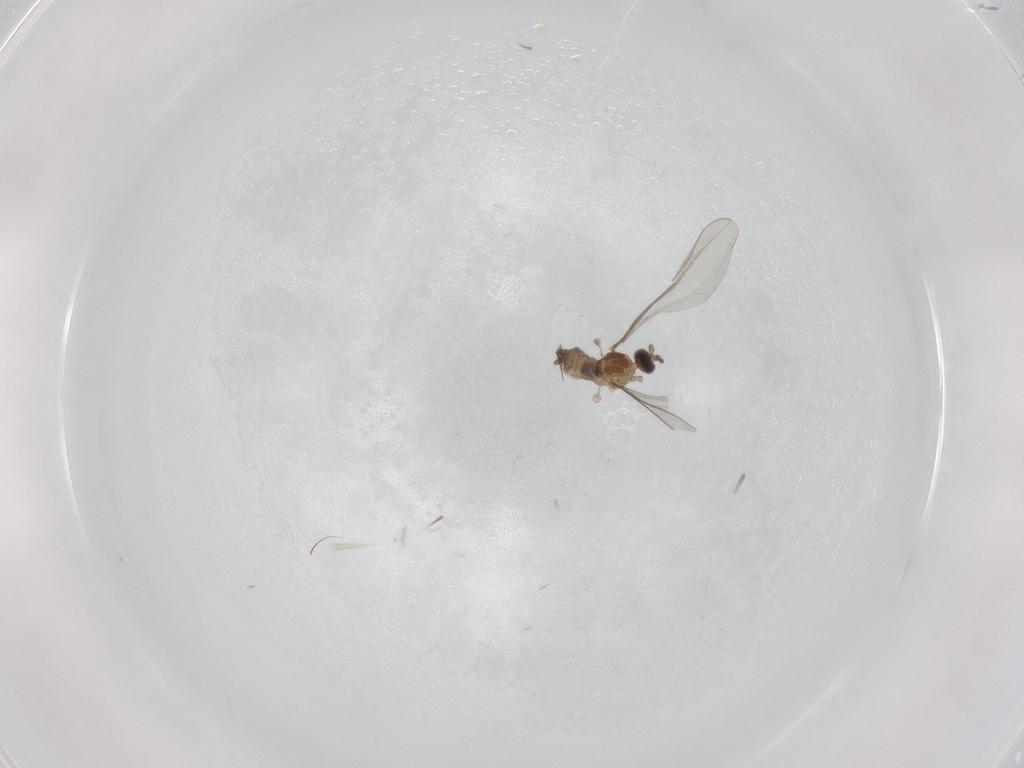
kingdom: Animalia
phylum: Arthropoda
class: Insecta
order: Diptera
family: Cecidomyiidae
